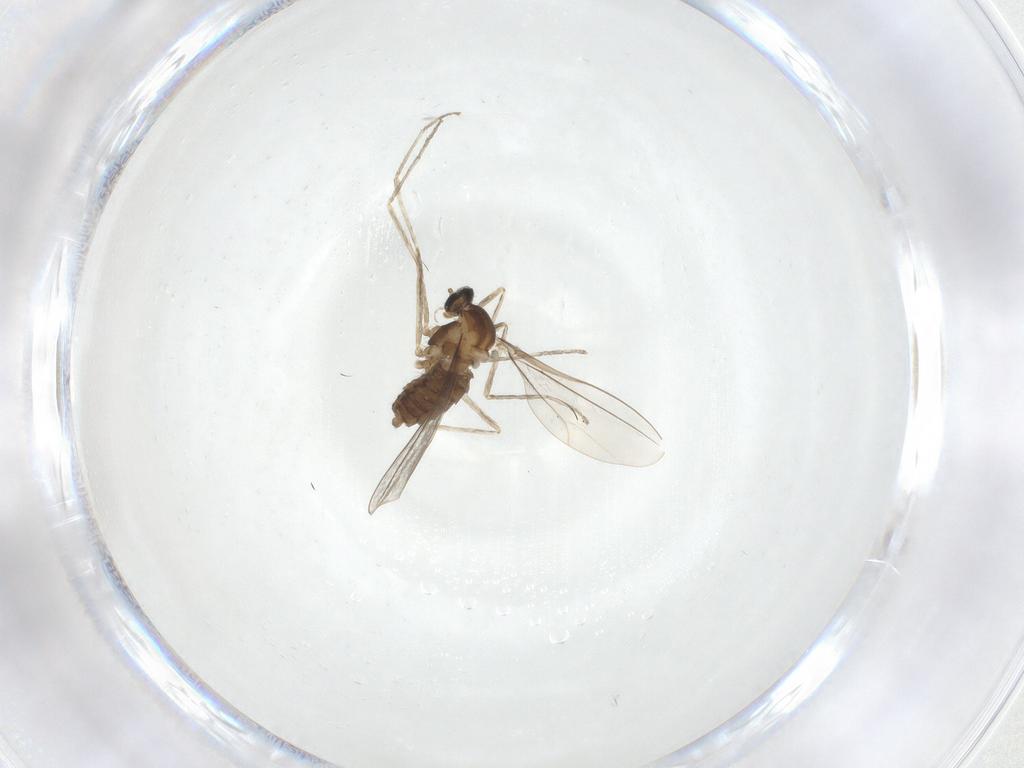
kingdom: Animalia
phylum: Arthropoda
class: Insecta
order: Diptera
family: Cecidomyiidae
